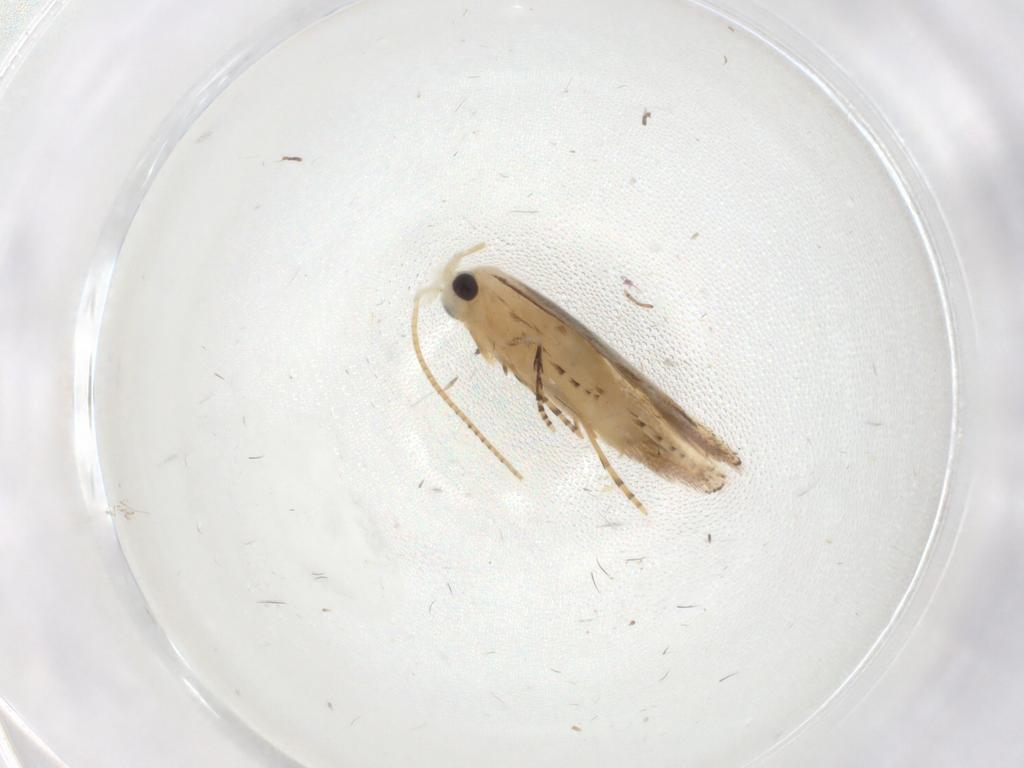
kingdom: Animalia
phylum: Arthropoda
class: Insecta
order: Lepidoptera
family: Bucculatricidae
